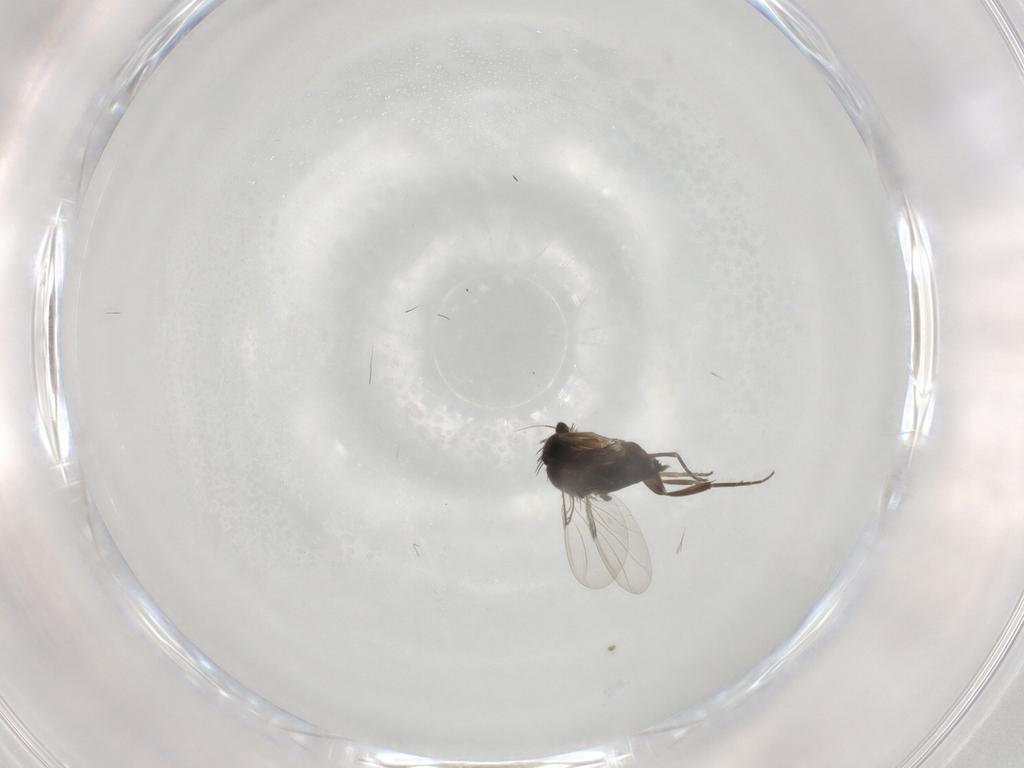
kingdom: Animalia
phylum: Arthropoda
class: Insecta
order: Diptera
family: Phoridae
